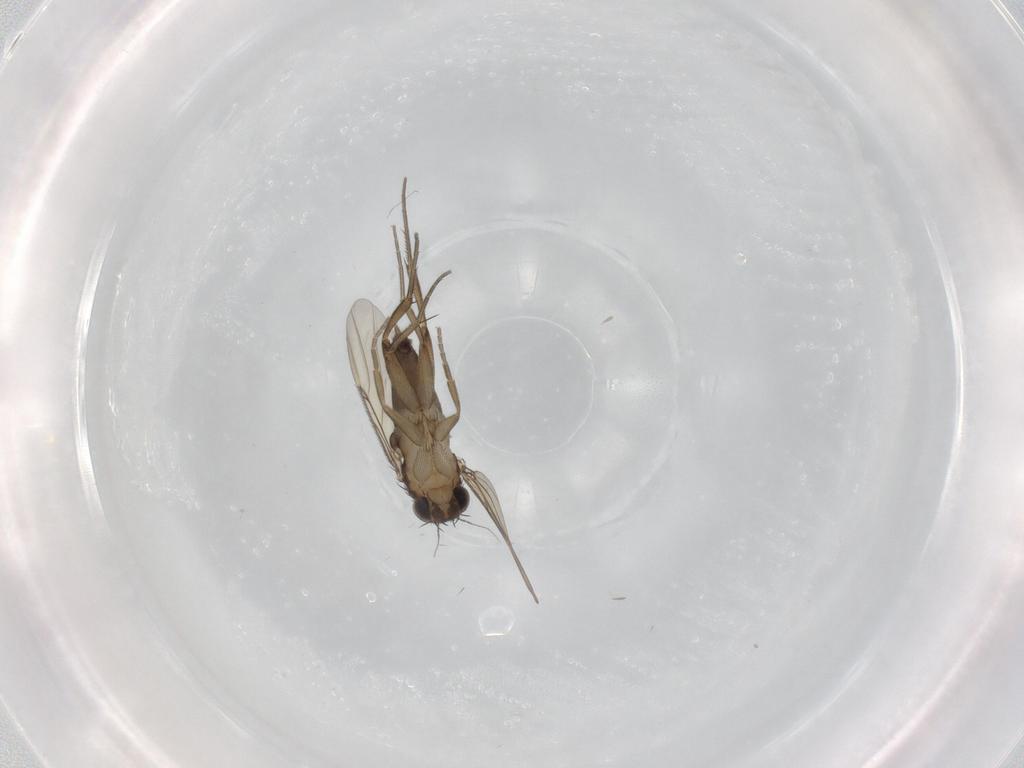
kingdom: Animalia
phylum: Arthropoda
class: Insecta
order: Diptera
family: Phoridae
